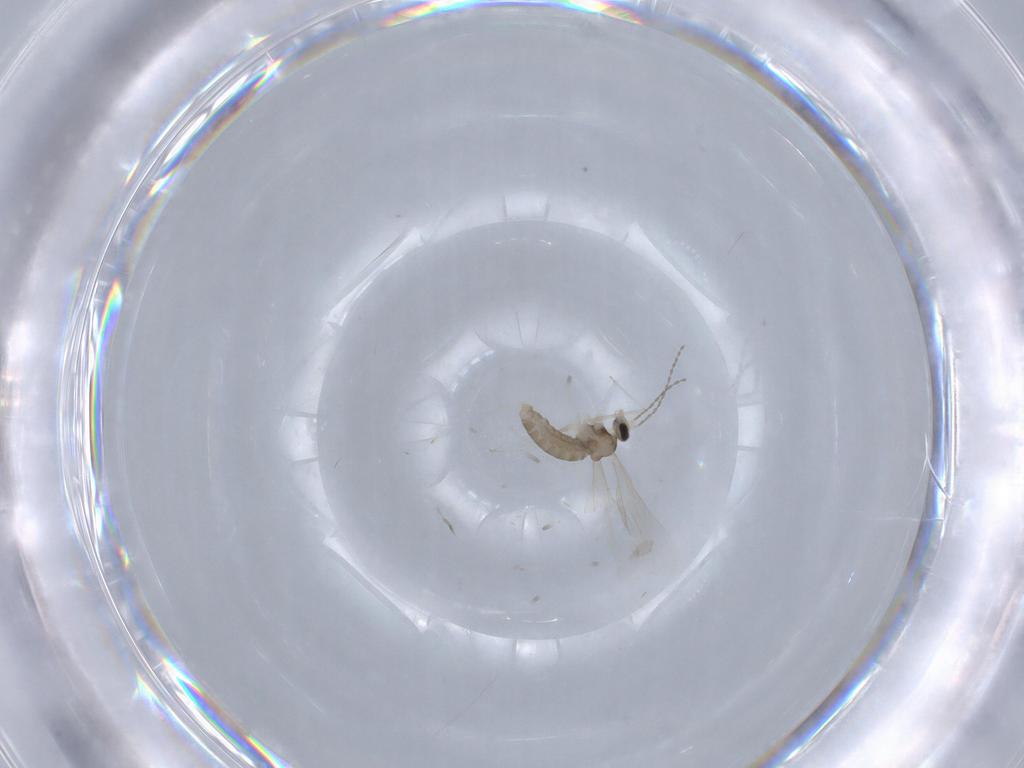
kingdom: Animalia
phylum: Arthropoda
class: Insecta
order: Diptera
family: Cecidomyiidae
